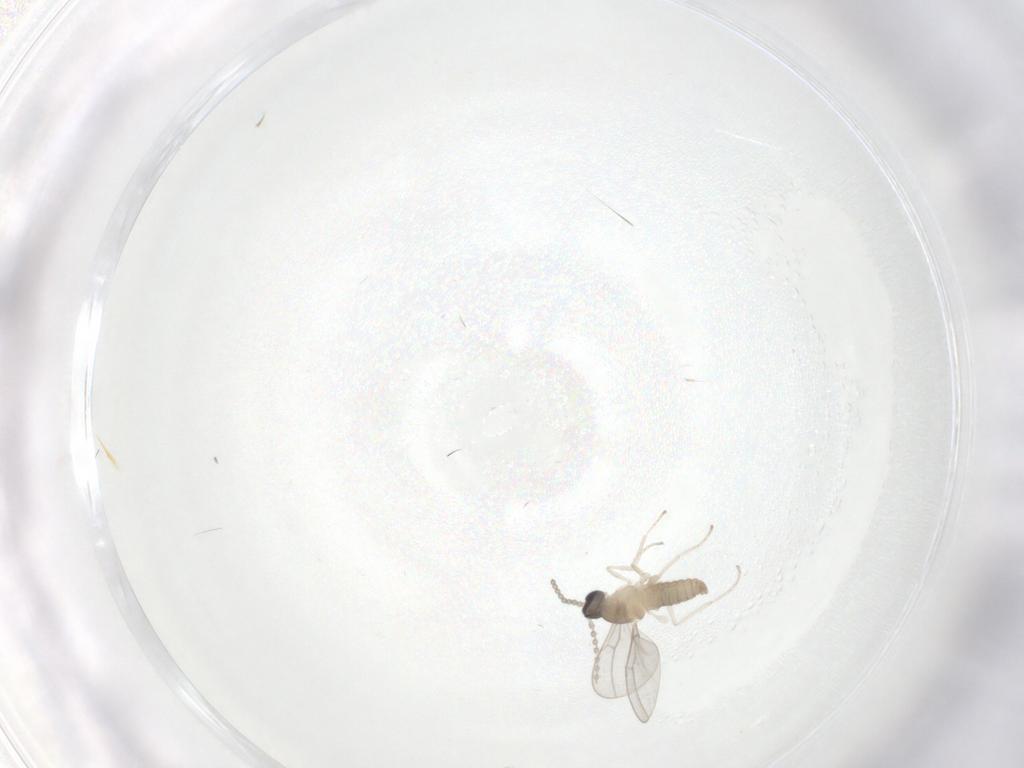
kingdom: Animalia
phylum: Arthropoda
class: Insecta
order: Diptera
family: Cecidomyiidae
